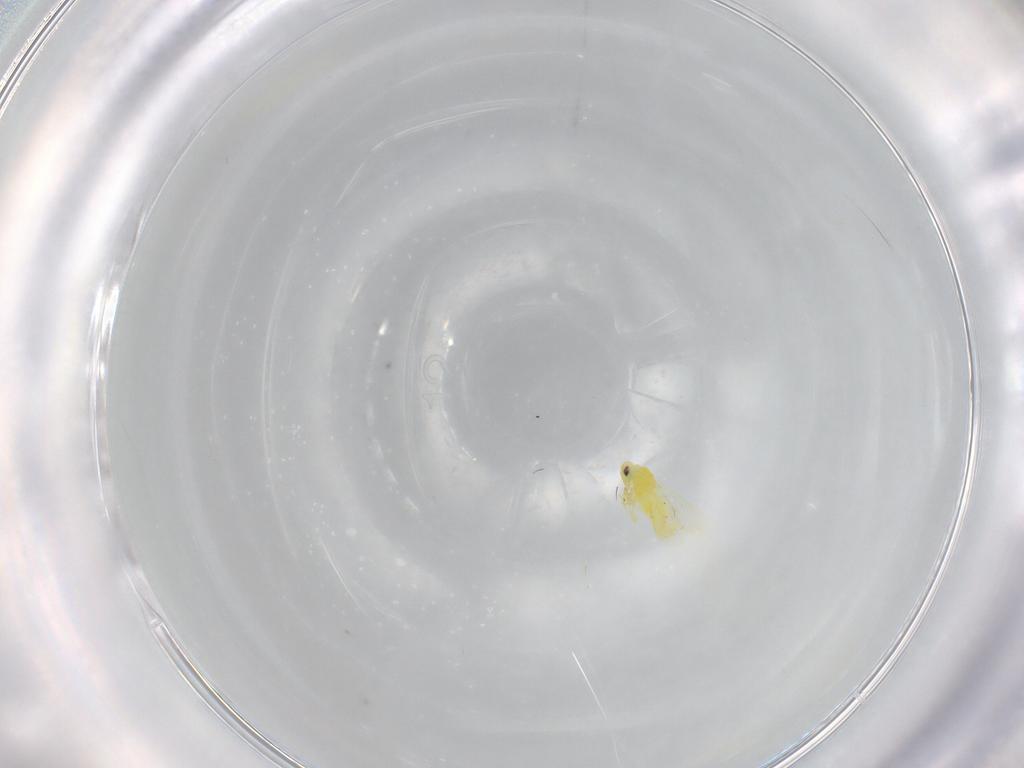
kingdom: Animalia
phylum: Arthropoda
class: Insecta
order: Hemiptera
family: Aleyrodidae
